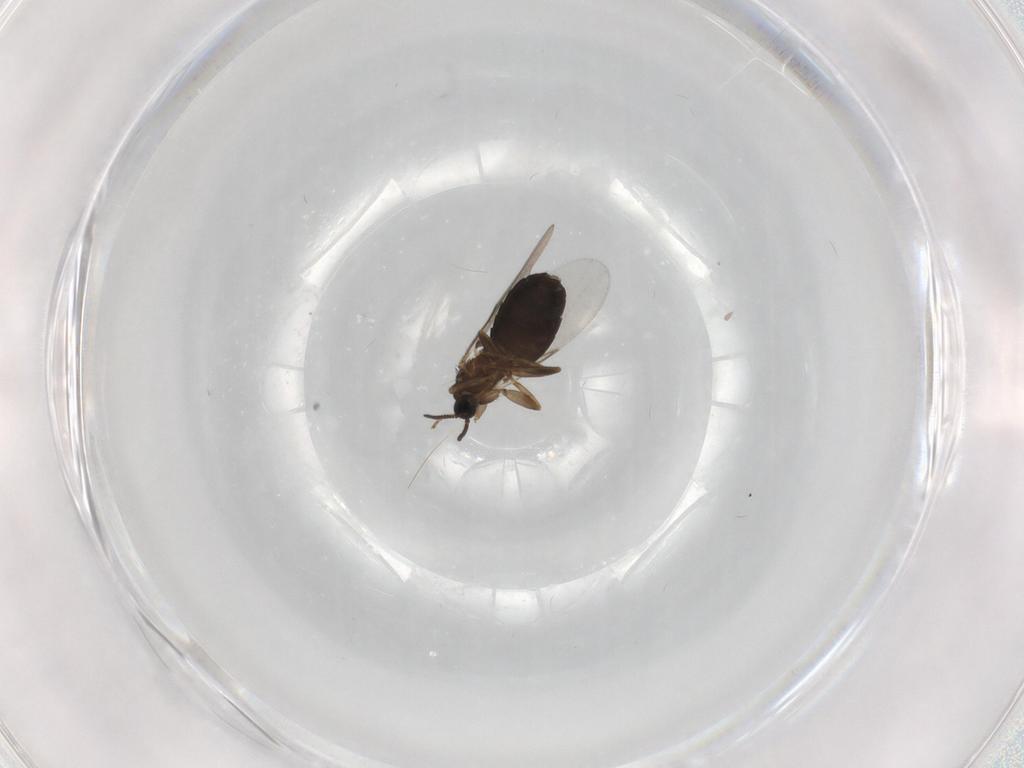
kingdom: Animalia
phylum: Arthropoda
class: Insecta
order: Diptera
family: Scatopsidae
